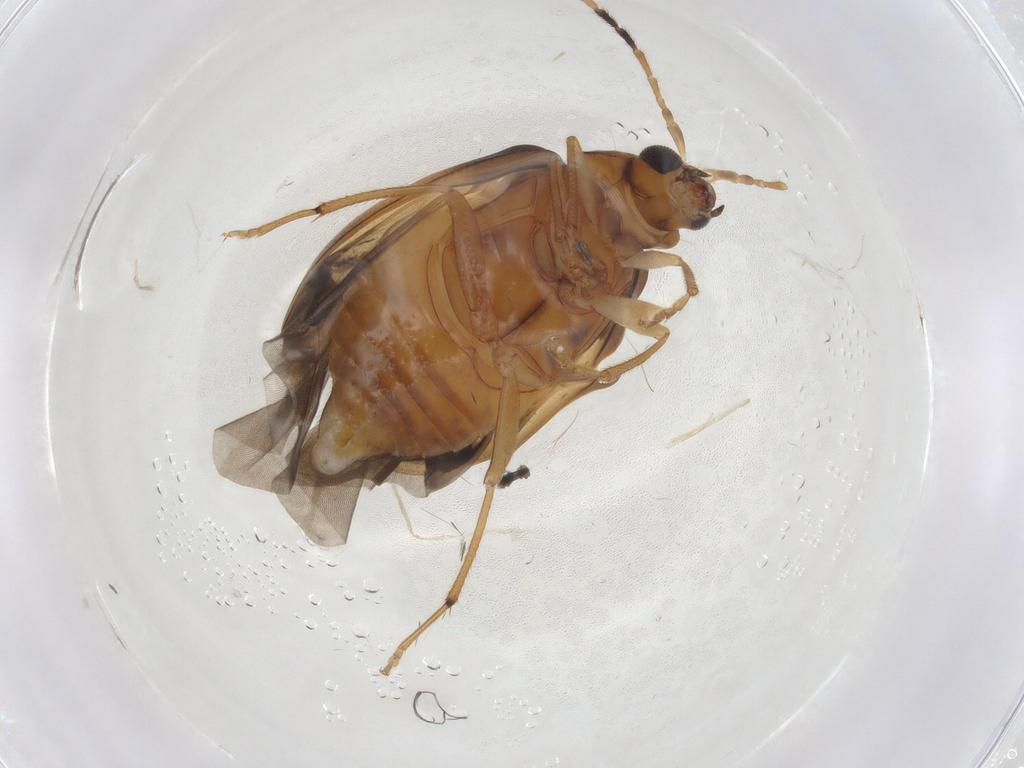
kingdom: Animalia
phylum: Arthropoda
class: Insecta
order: Coleoptera
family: Chrysomelidae
